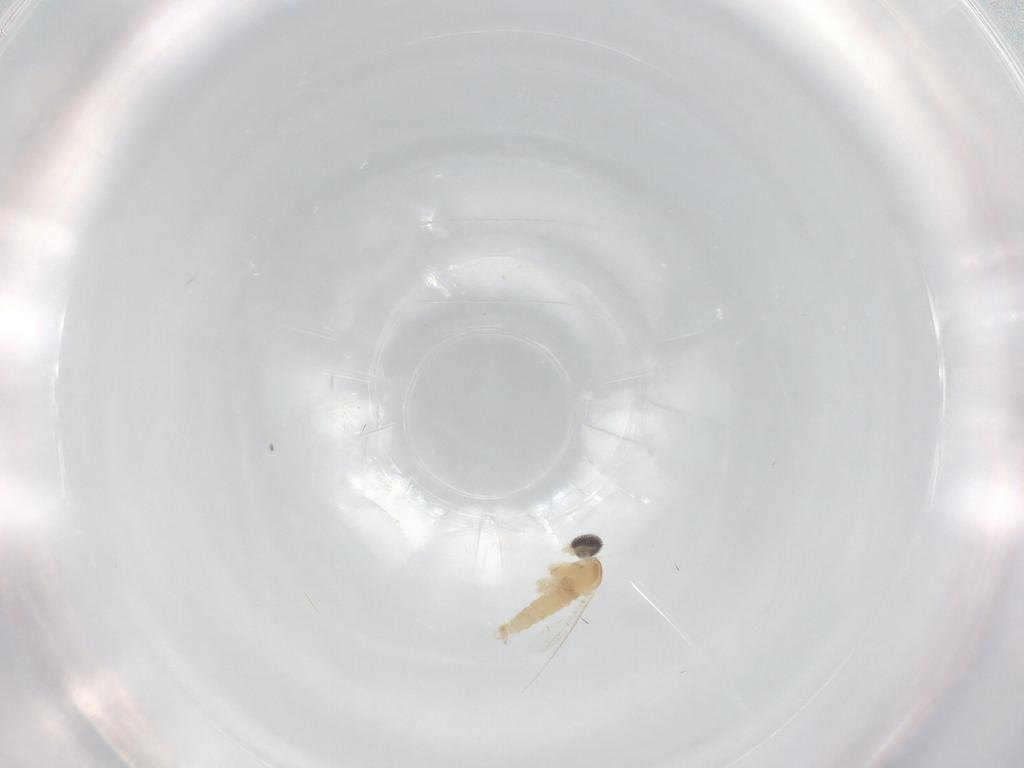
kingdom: Animalia
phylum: Arthropoda
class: Insecta
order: Diptera
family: Cecidomyiidae
